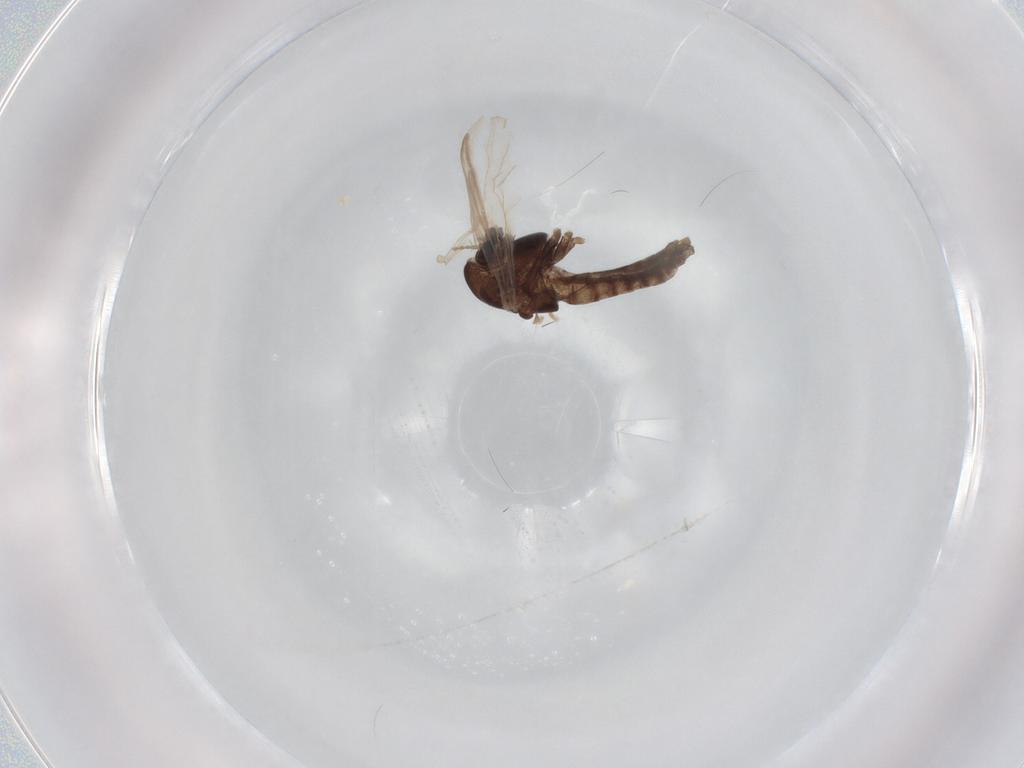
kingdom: Animalia
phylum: Arthropoda
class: Insecta
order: Diptera
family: Chironomidae
